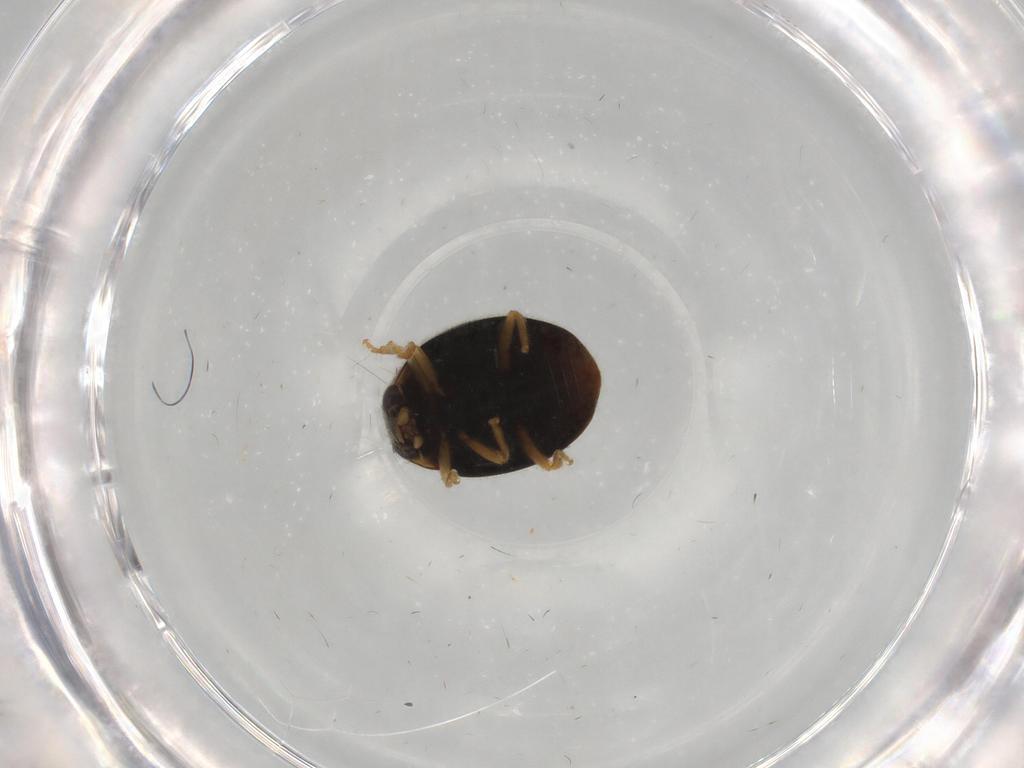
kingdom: Animalia
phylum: Arthropoda
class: Insecta
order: Coleoptera
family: Coccinellidae
